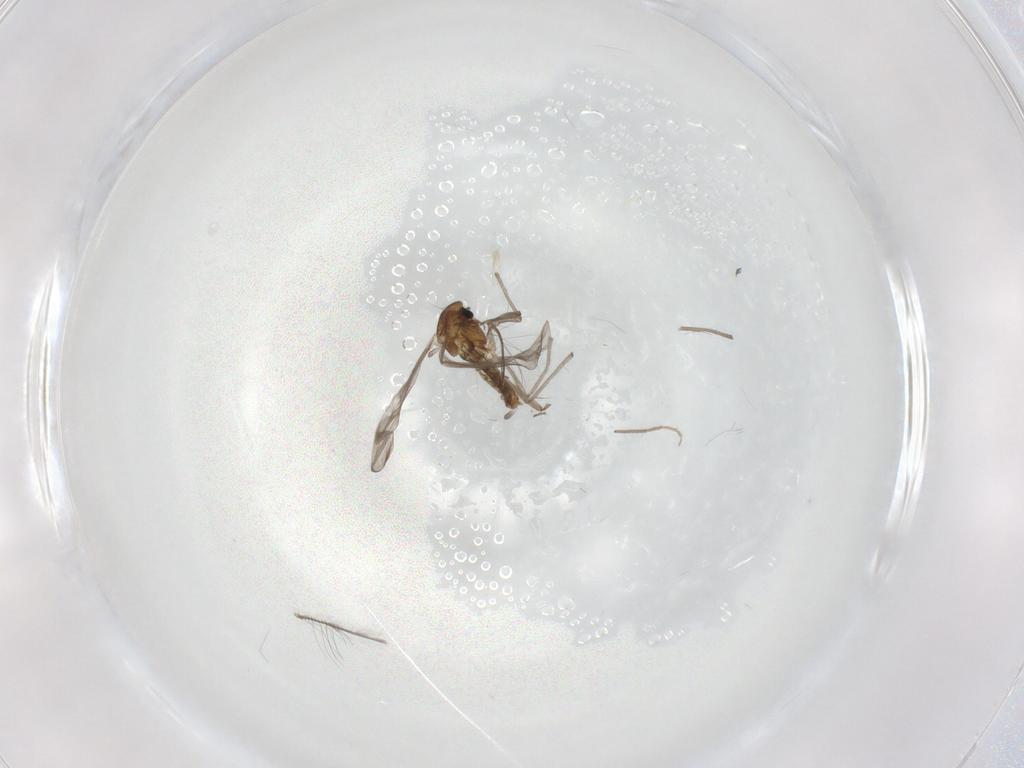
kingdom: Animalia
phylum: Arthropoda
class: Insecta
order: Diptera
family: Chironomidae
